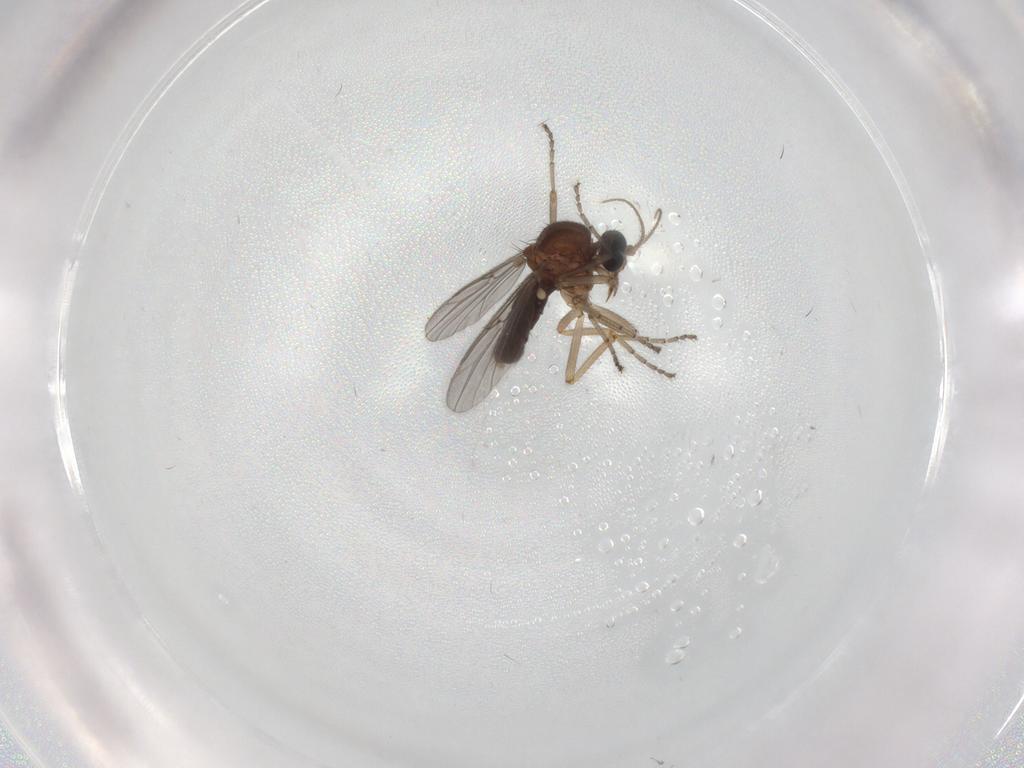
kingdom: Animalia
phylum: Arthropoda
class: Insecta
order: Diptera
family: Ceratopogonidae
